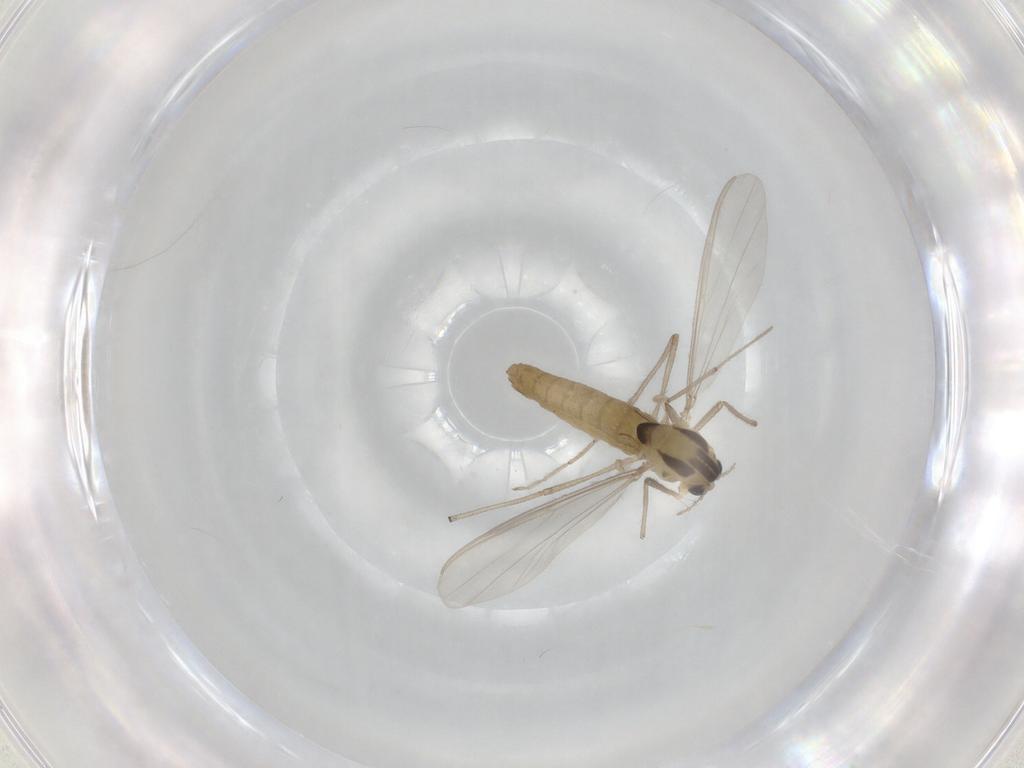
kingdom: Animalia
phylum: Arthropoda
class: Insecta
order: Diptera
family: Chironomidae
